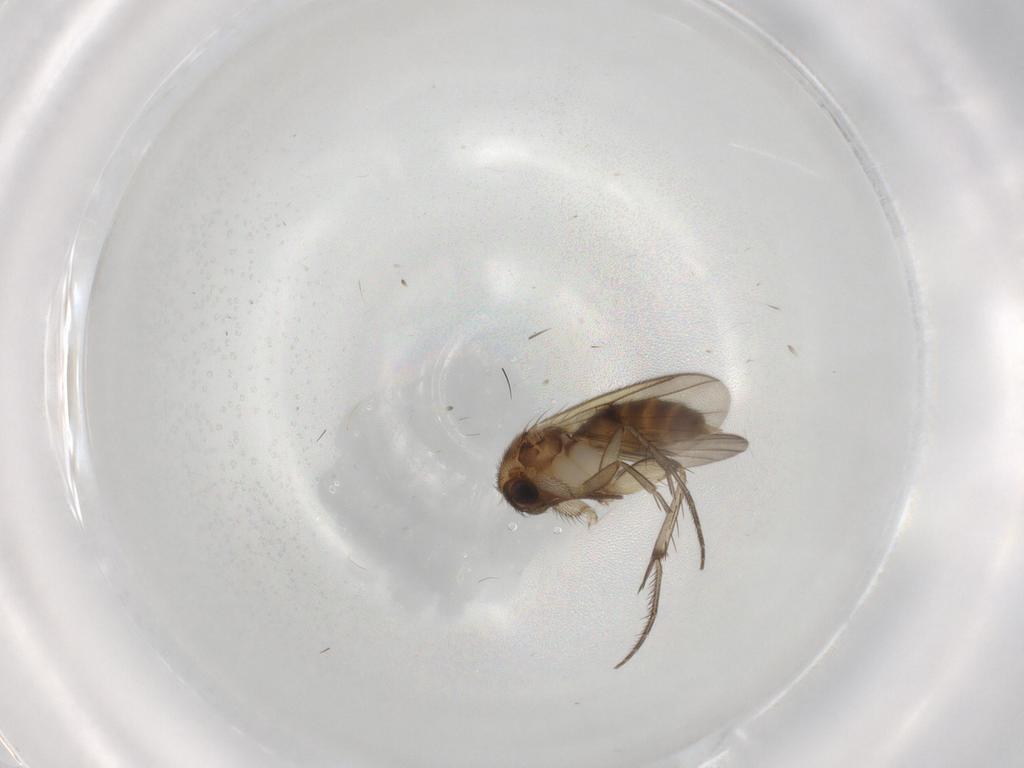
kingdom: Animalia
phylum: Arthropoda
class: Insecta
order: Diptera
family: Mycetophilidae
